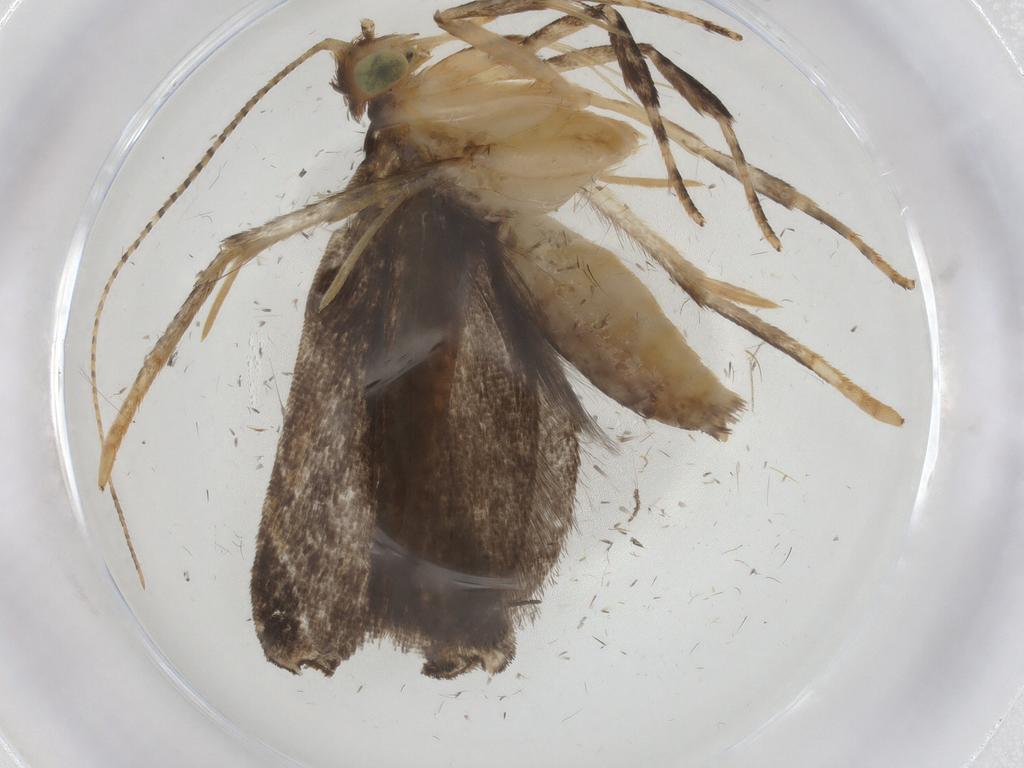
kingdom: Animalia
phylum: Arthropoda
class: Insecta
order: Lepidoptera
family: Gelechiidae
